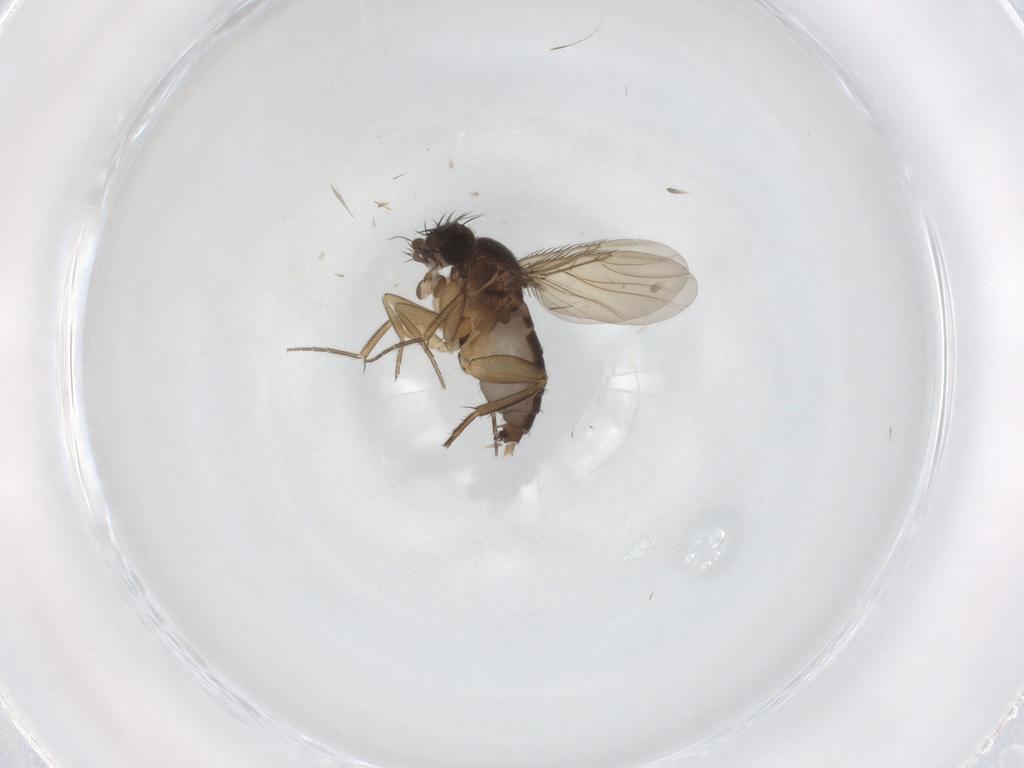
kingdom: Animalia
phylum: Arthropoda
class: Insecta
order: Diptera
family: Phoridae
